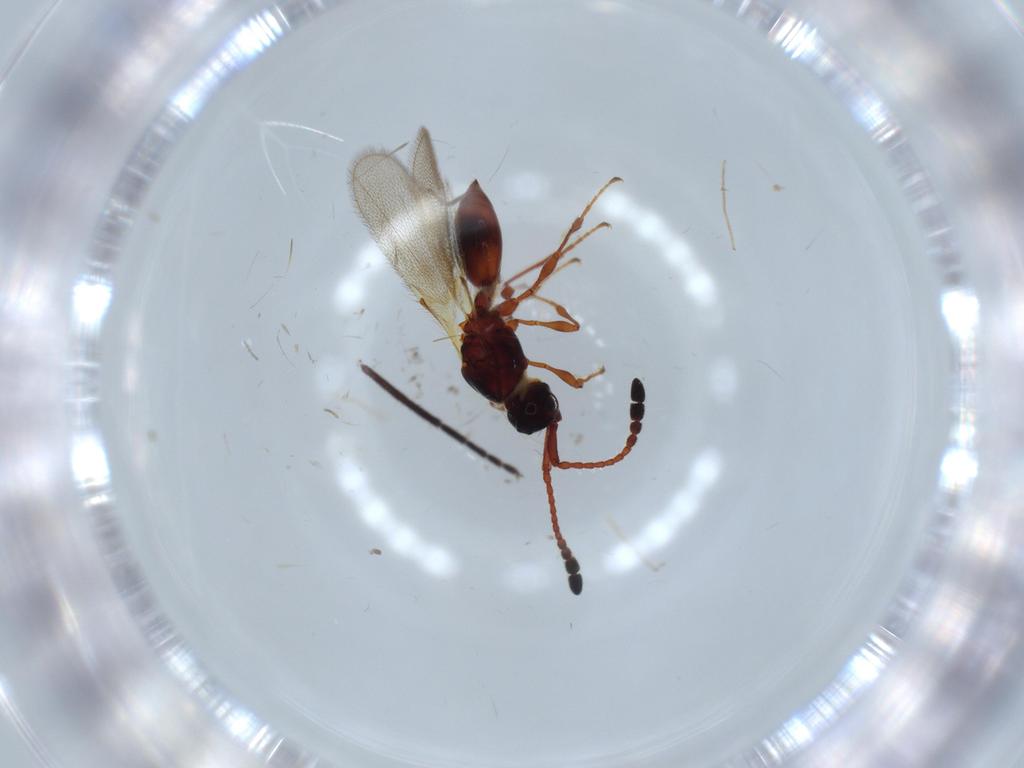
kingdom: Animalia
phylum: Arthropoda
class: Insecta
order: Hymenoptera
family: Diapriidae
